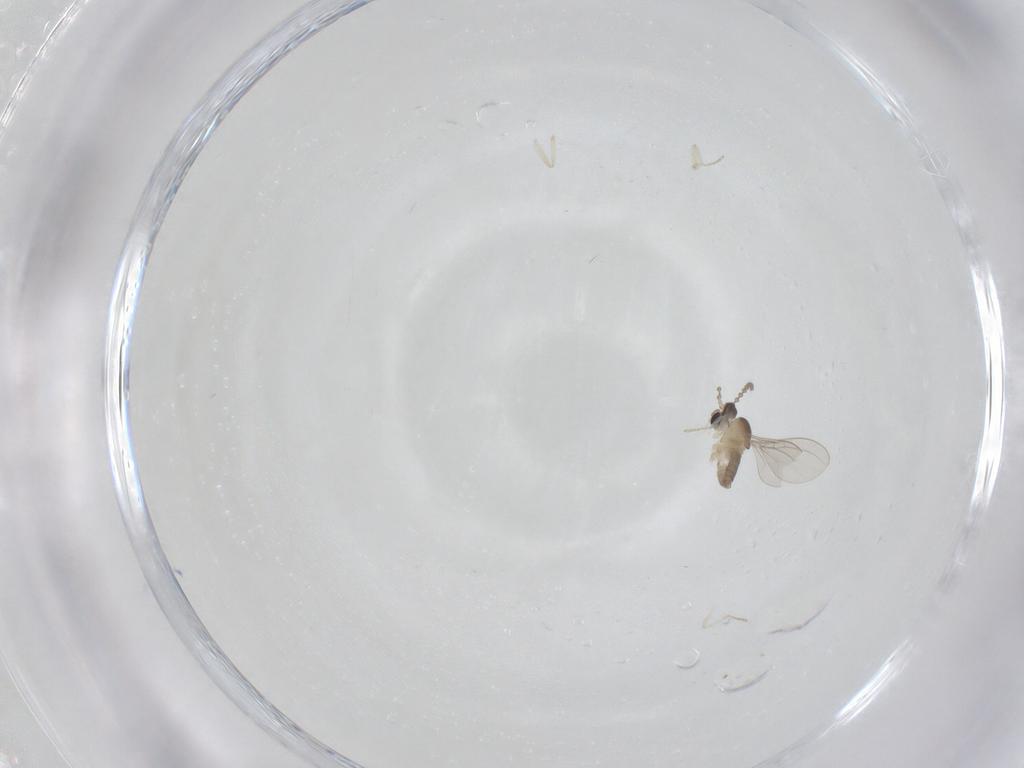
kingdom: Animalia
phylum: Arthropoda
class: Insecta
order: Diptera
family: Cecidomyiidae
